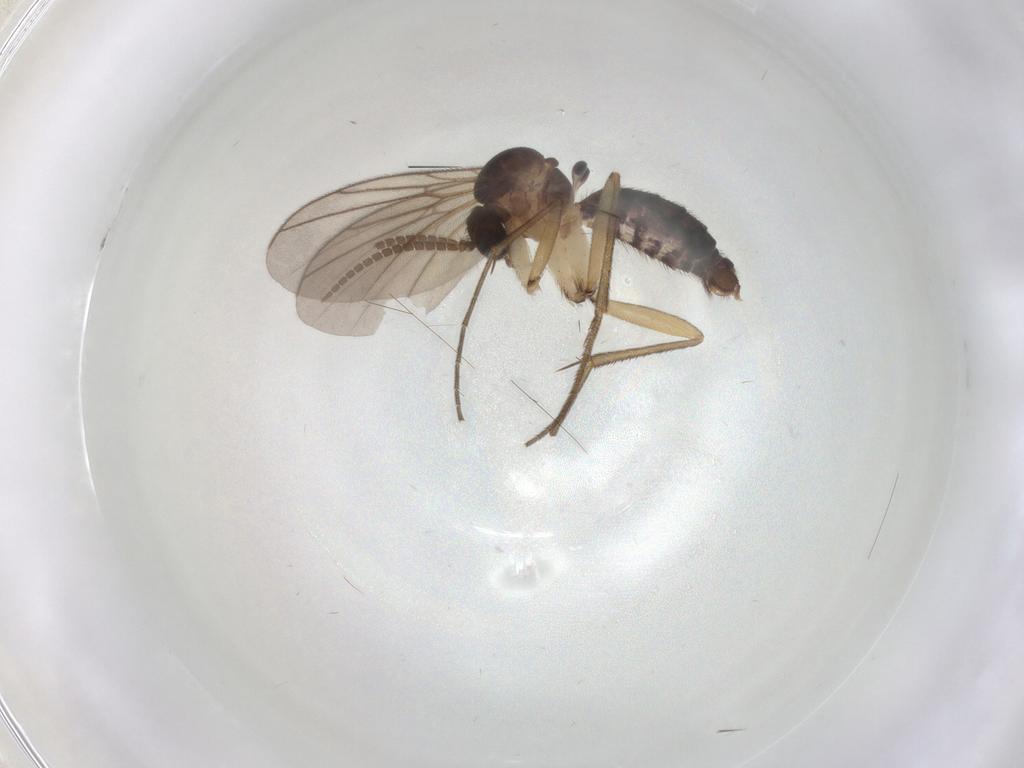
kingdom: Animalia
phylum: Arthropoda
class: Insecta
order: Diptera
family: Mycetophilidae
